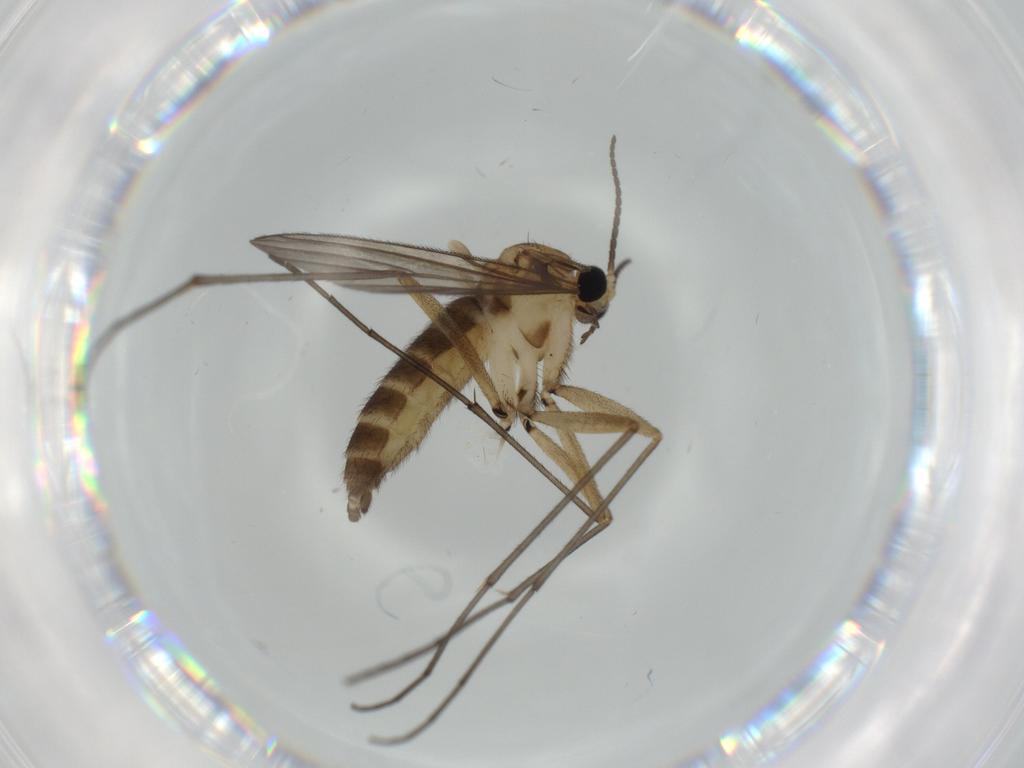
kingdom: Animalia
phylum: Arthropoda
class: Insecta
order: Diptera
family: Sciaridae
